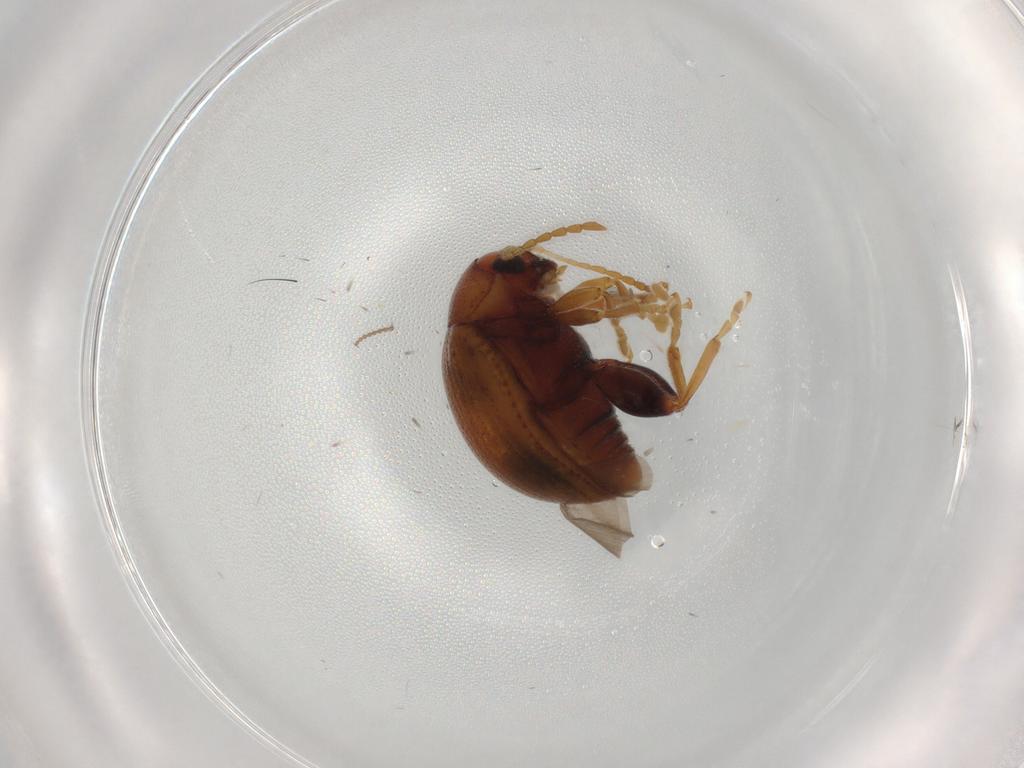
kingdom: Animalia
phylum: Arthropoda
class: Insecta
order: Coleoptera
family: Chrysomelidae
